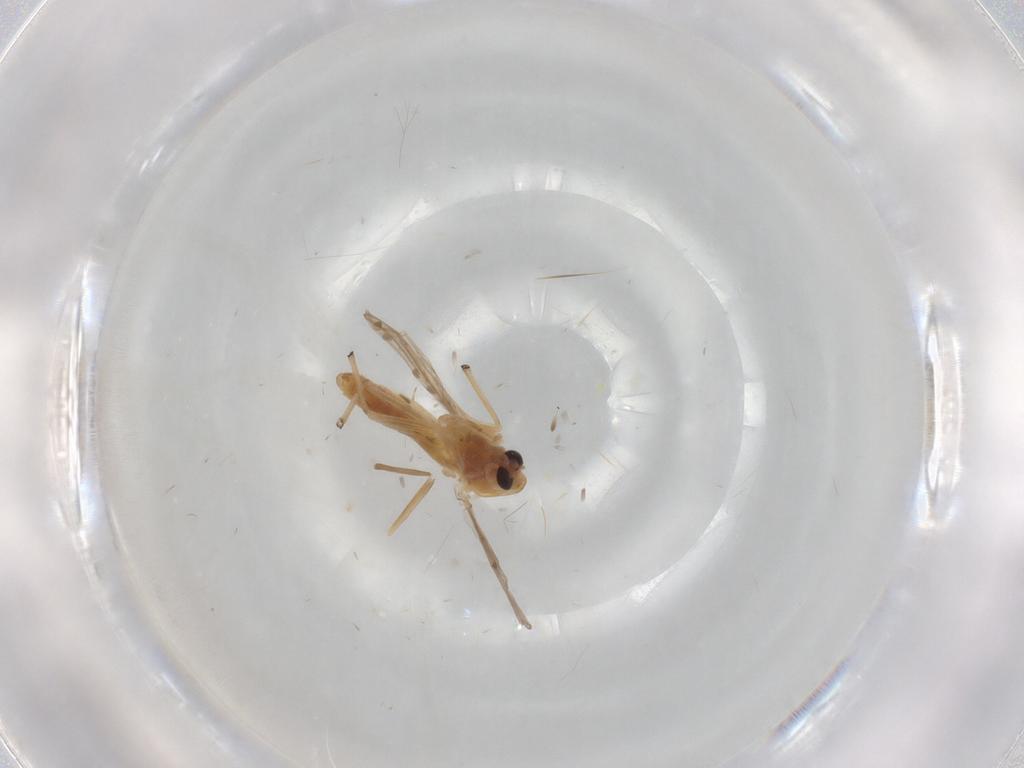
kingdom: Animalia
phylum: Arthropoda
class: Insecta
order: Diptera
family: Chironomidae
